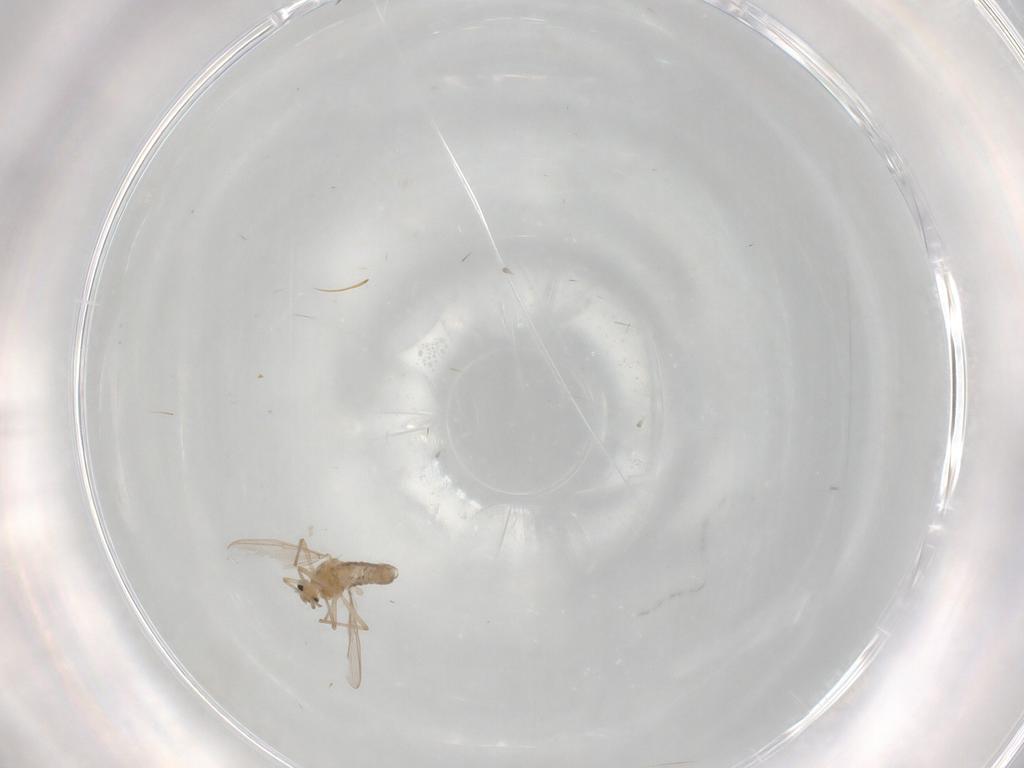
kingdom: Animalia
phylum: Arthropoda
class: Insecta
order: Diptera
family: Chironomidae
